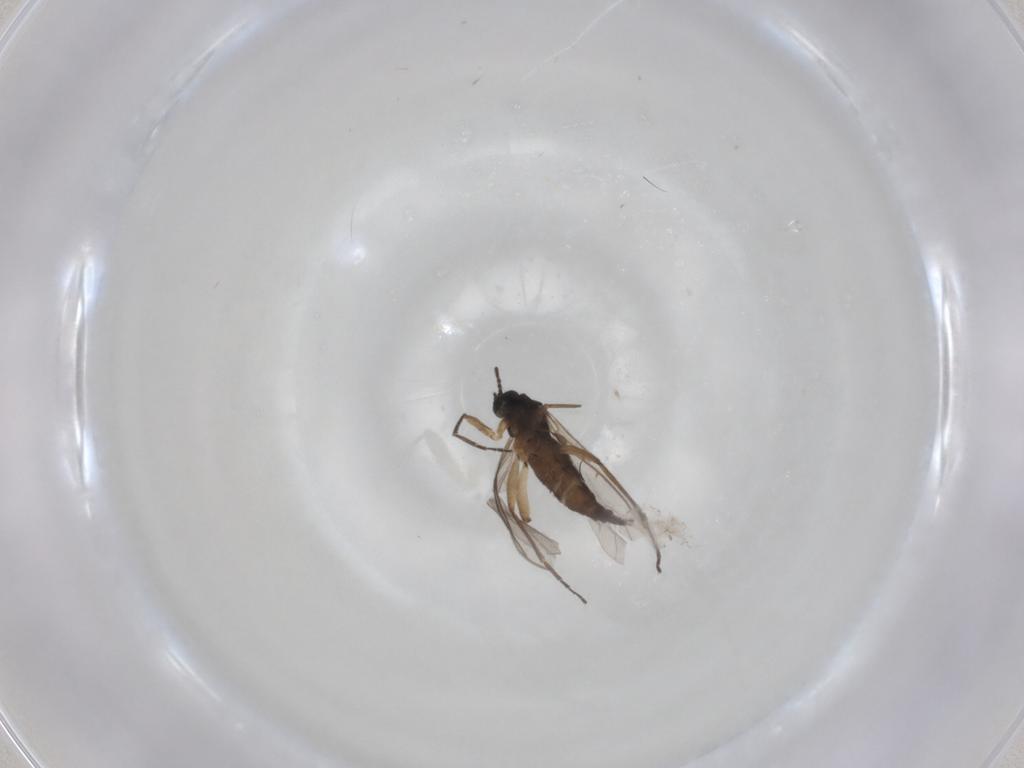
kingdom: Animalia
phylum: Arthropoda
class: Insecta
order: Diptera
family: Sciaridae
